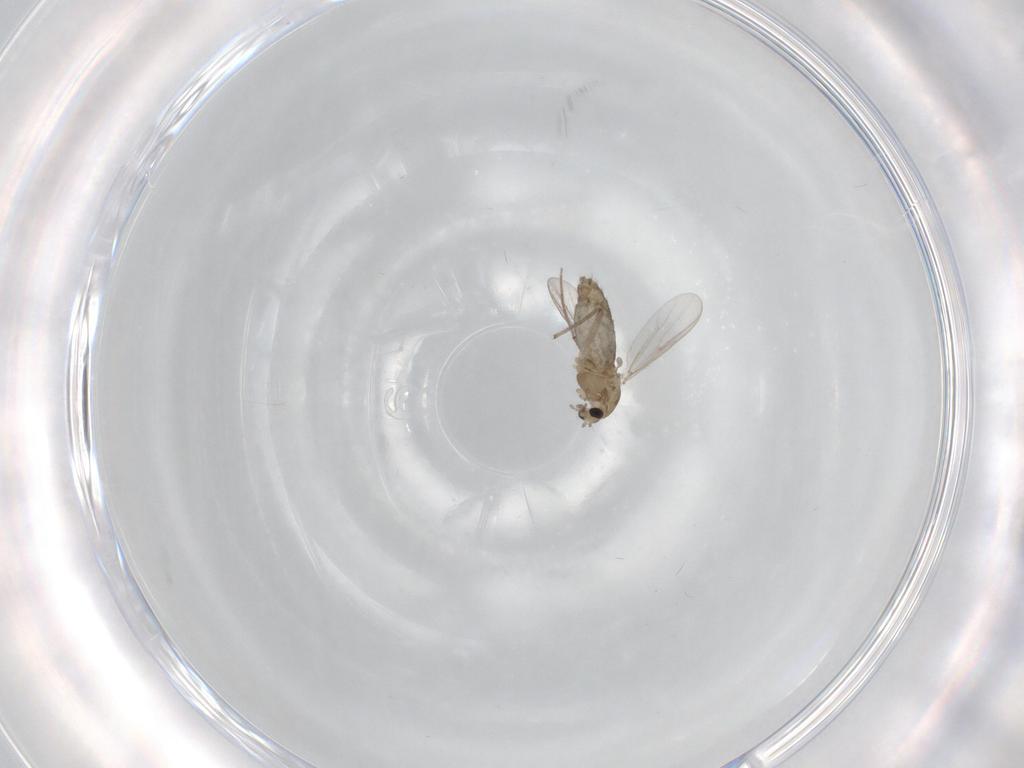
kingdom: Animalia
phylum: Arthropoda
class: Insecta
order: Diptera
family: Chironomidae
